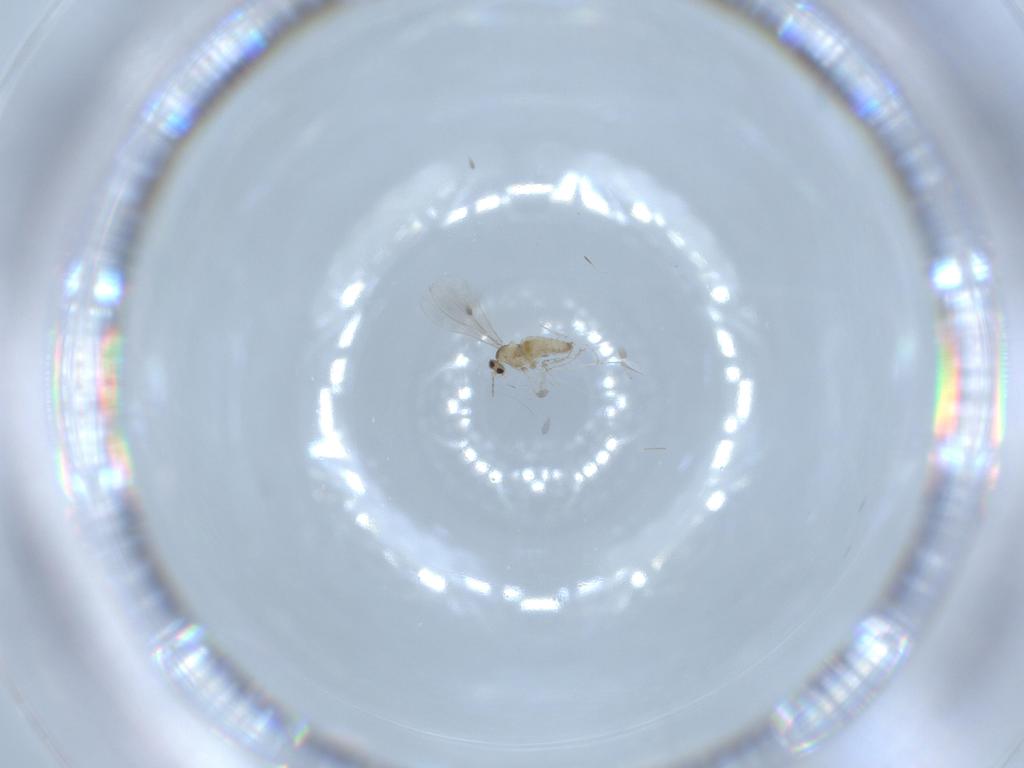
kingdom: Animalia
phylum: Arthropoda
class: Insecta
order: Diptera
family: Cecidomyiidae
